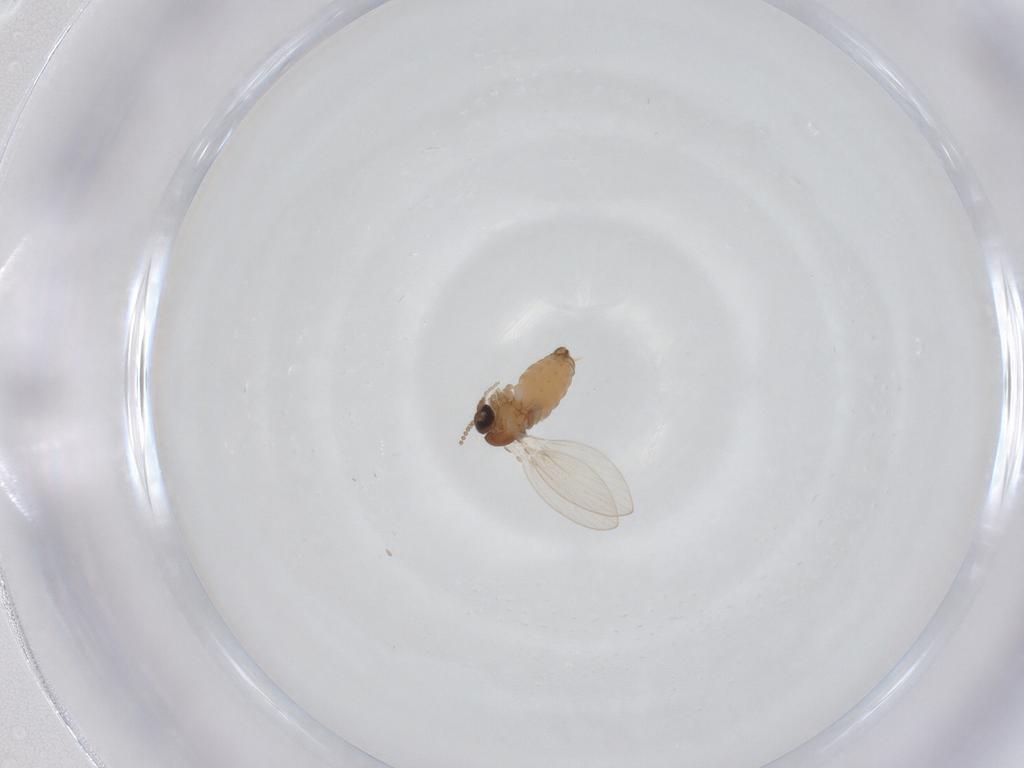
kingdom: Animalia
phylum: Arthropoda
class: Insecta
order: Diptera
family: Psychodidae
